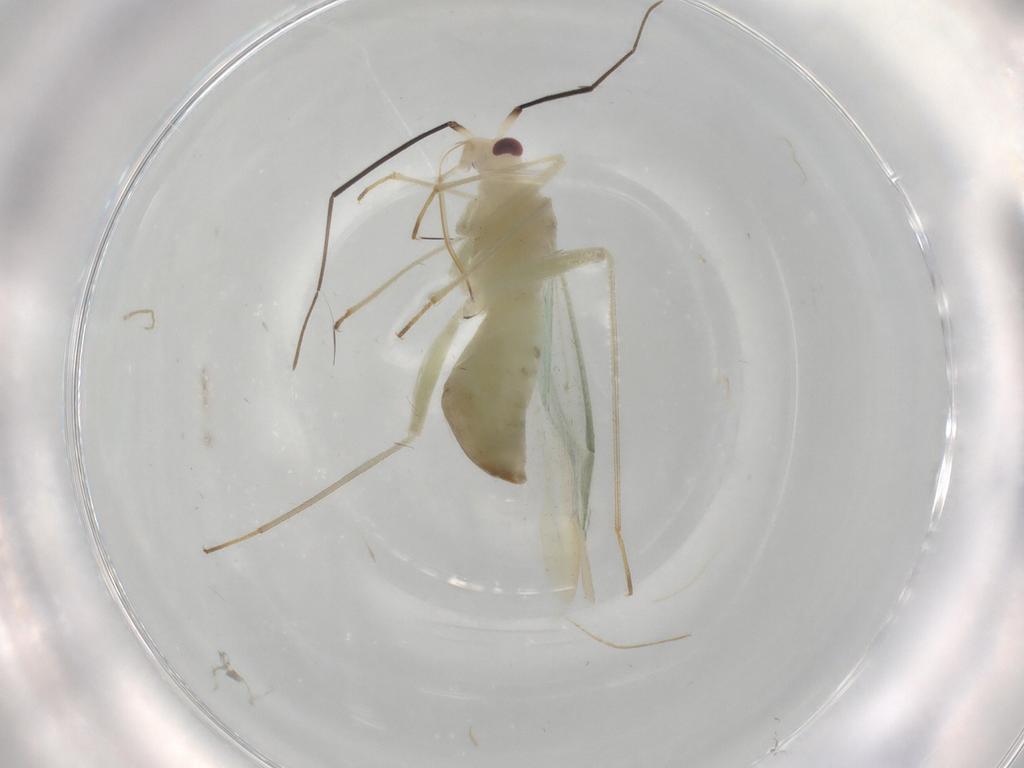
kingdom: Animalia
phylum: Arthropoda
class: Insecta
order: Hemiptera
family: Miridae
